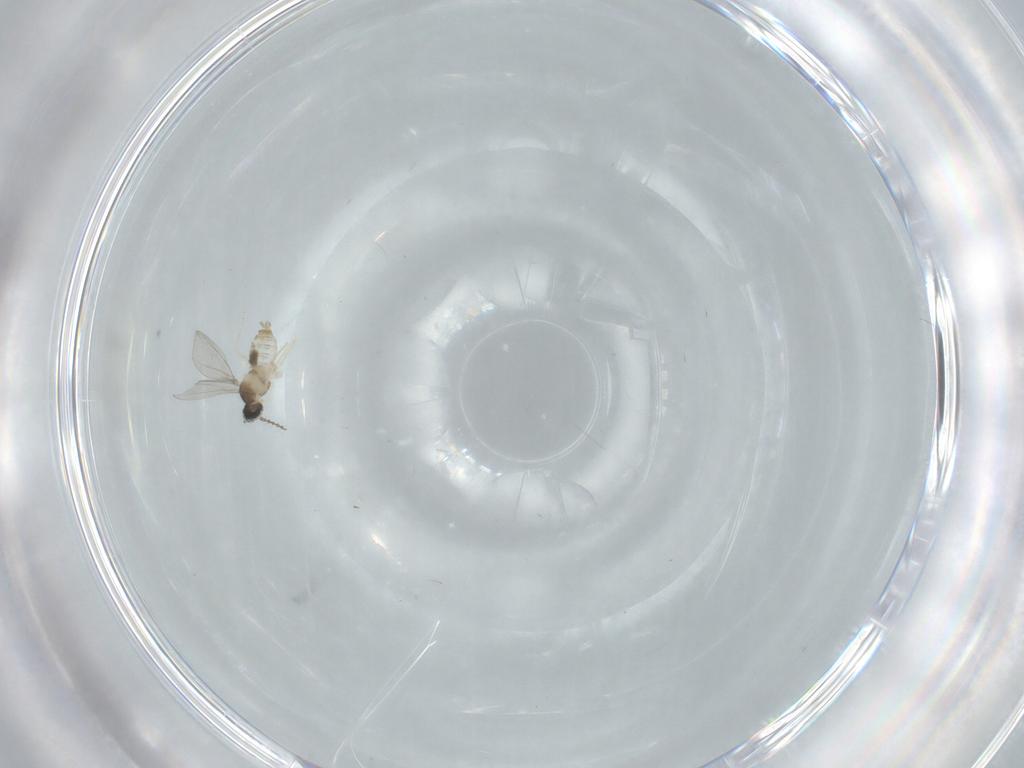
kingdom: Animalia
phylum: Arthropoda
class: Insecta
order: Diptera
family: Cecidomyiidae
